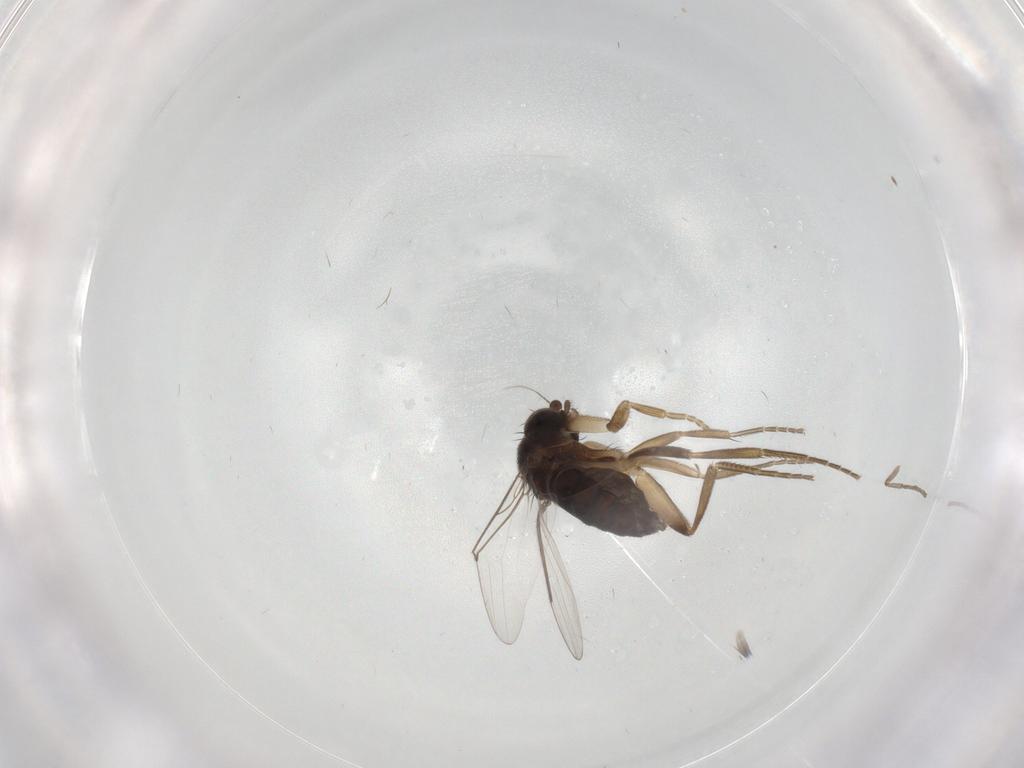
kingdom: Animalia
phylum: Arthropoda
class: Insecta
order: Diptera
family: Phoridae
